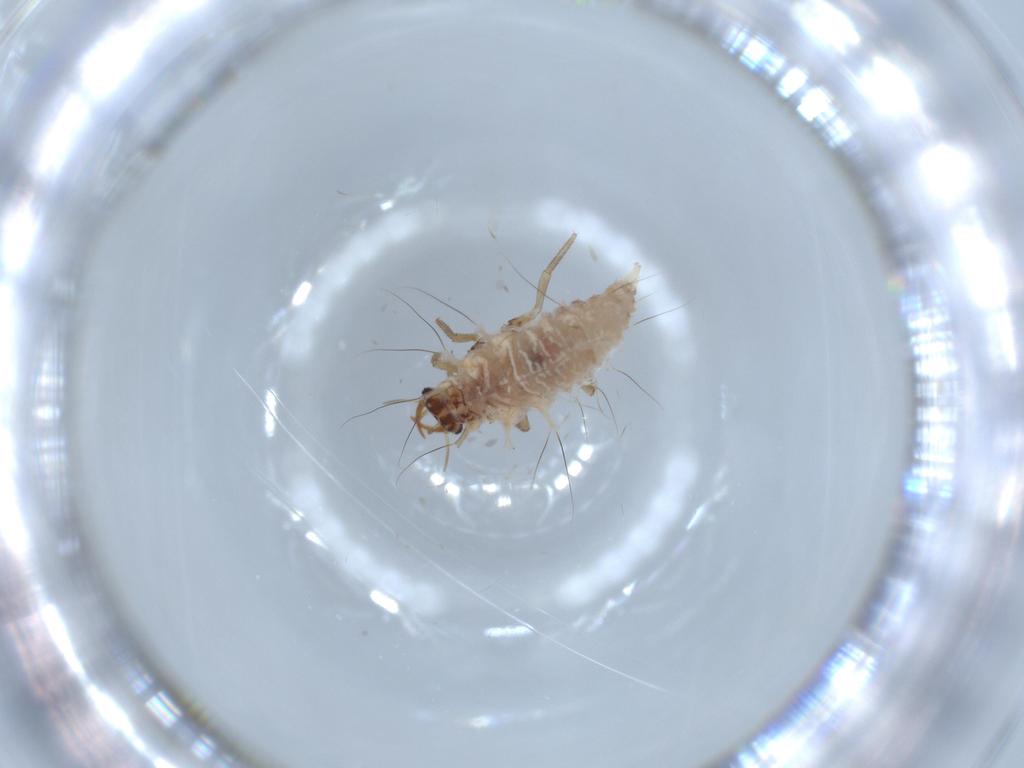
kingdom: Animalia
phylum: Arthropoda
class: Insecta
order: Neuroptera
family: Chrysopidae
